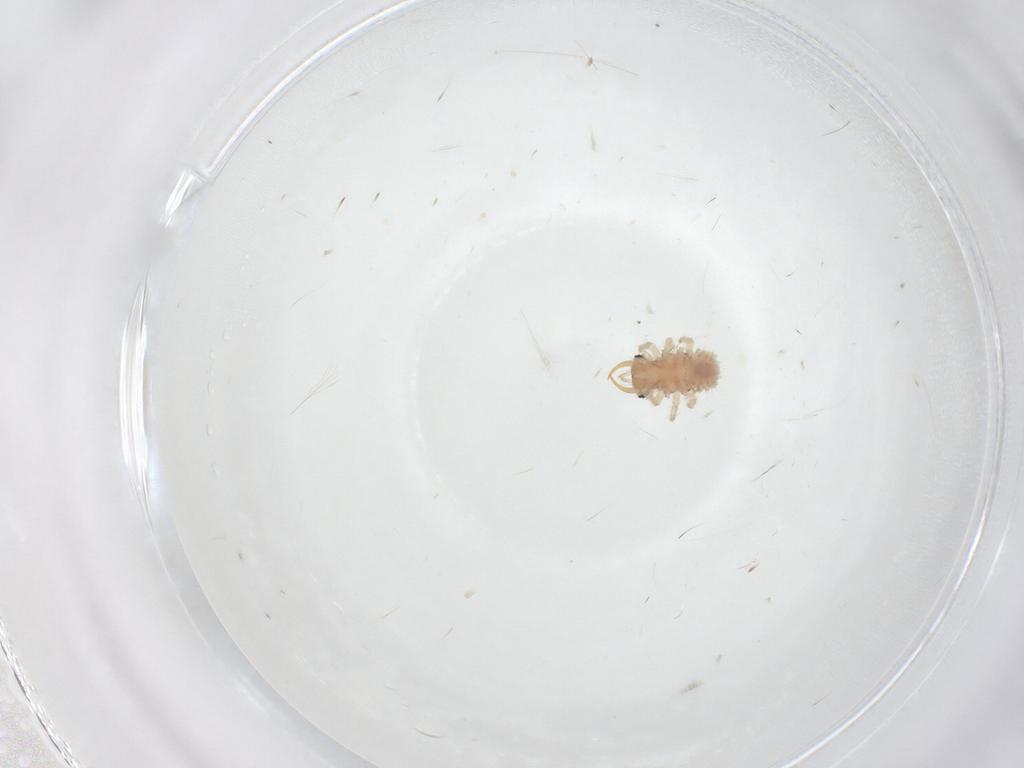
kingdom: Animalia
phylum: Arthropoda
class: Insecta
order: Neuroptera
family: Chrysopidae
